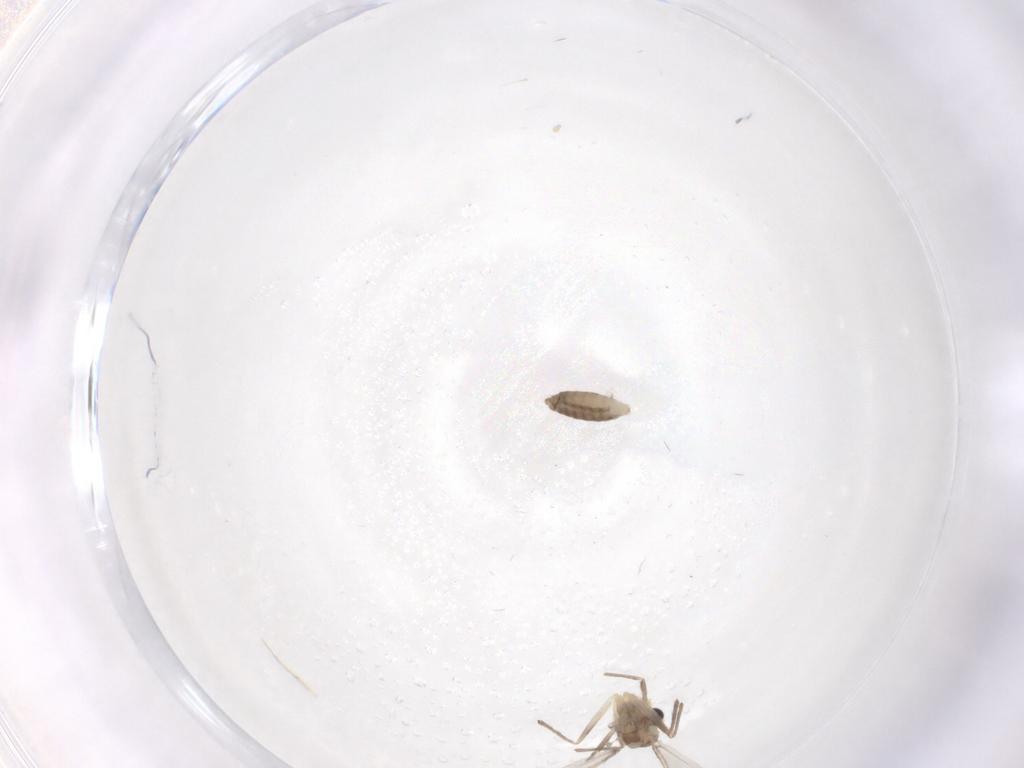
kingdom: Animalia
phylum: Arthropoda
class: Insecta
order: Diptera
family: Chironomidae
